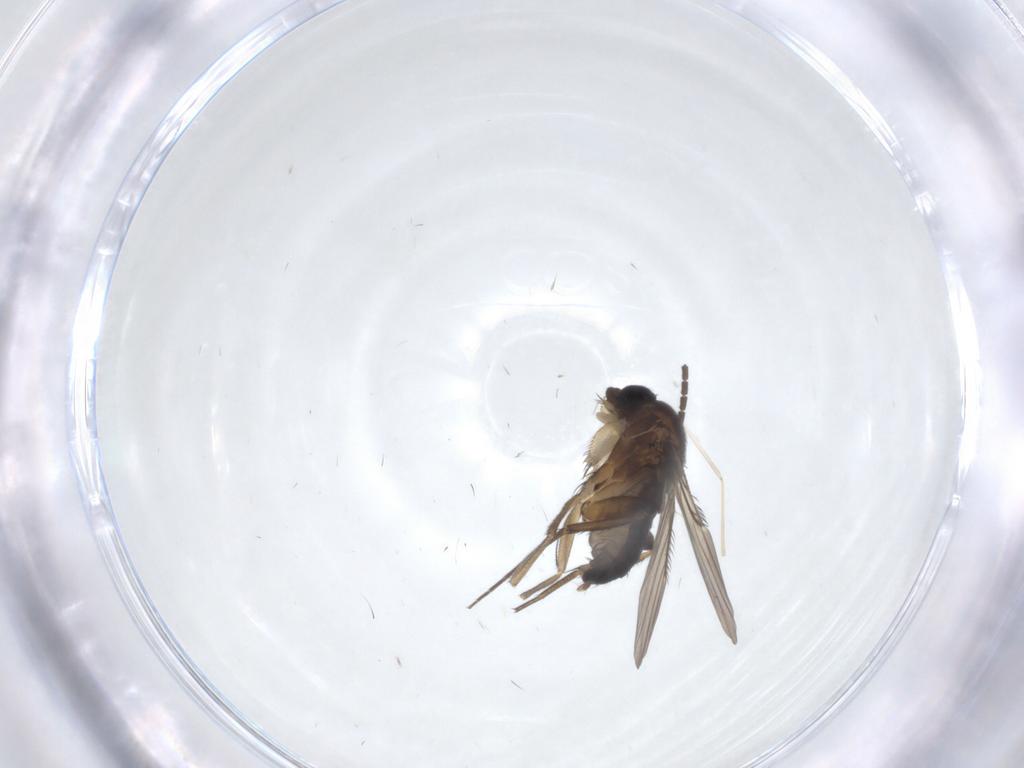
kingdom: Animalia
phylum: Arthropoda
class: Insecta
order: Diptera
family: Phoridae
